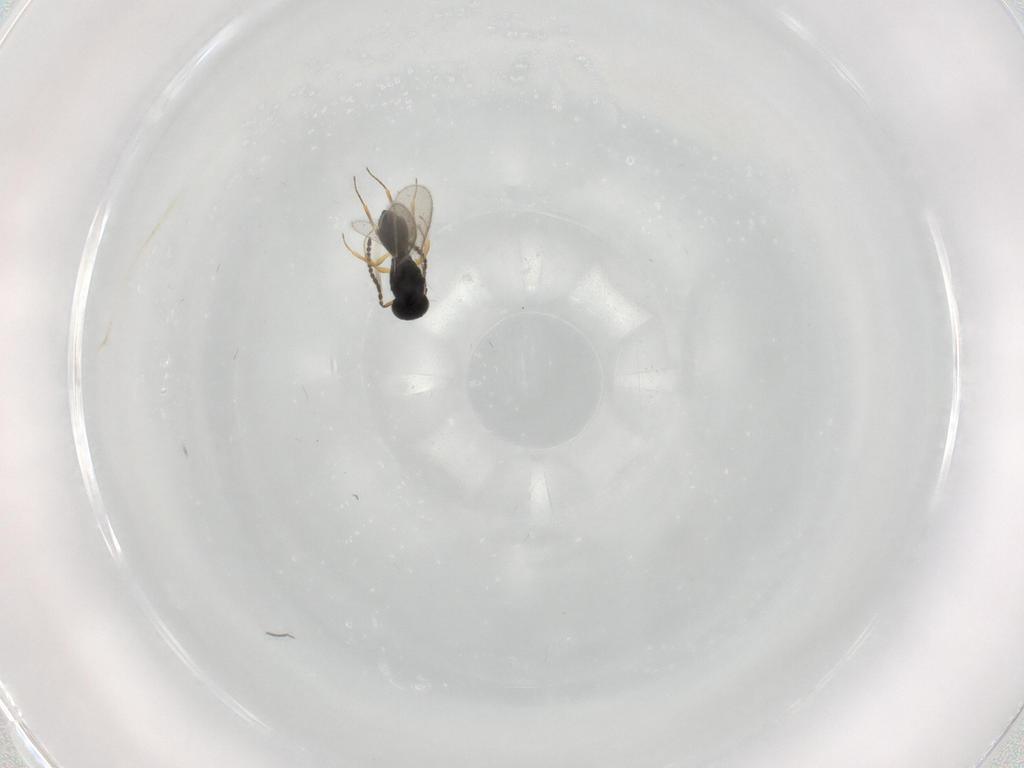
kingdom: Animalia
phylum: Arthropoda
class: Insecta
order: Hymenoptera
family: Scelionidae
